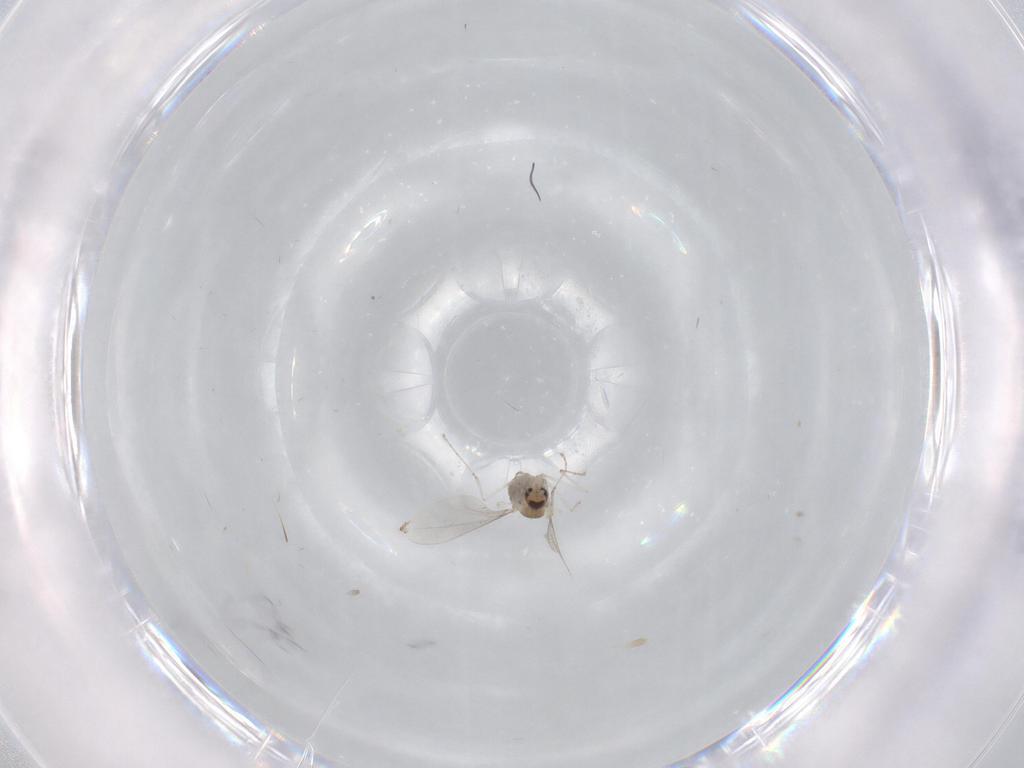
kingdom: Animalia
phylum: Arthropoda
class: Insecta
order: Diptera
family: Cecidomyiidae
